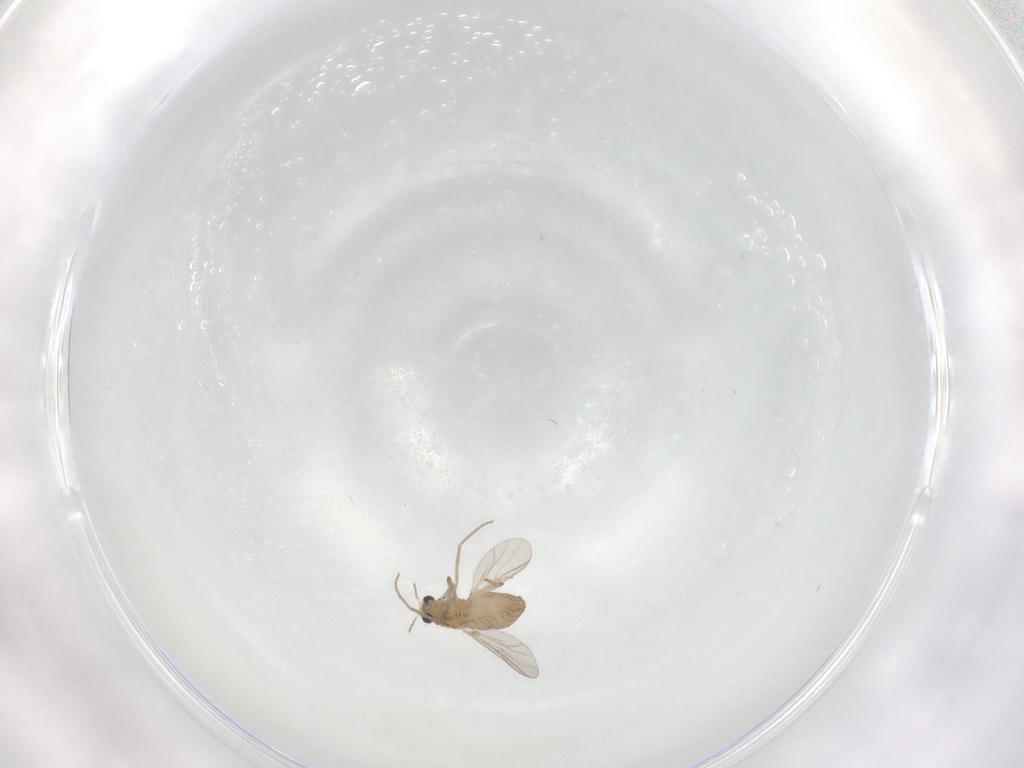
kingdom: Animalia
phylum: Arthropoda
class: Insecta
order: Diptera
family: Chironomidae
